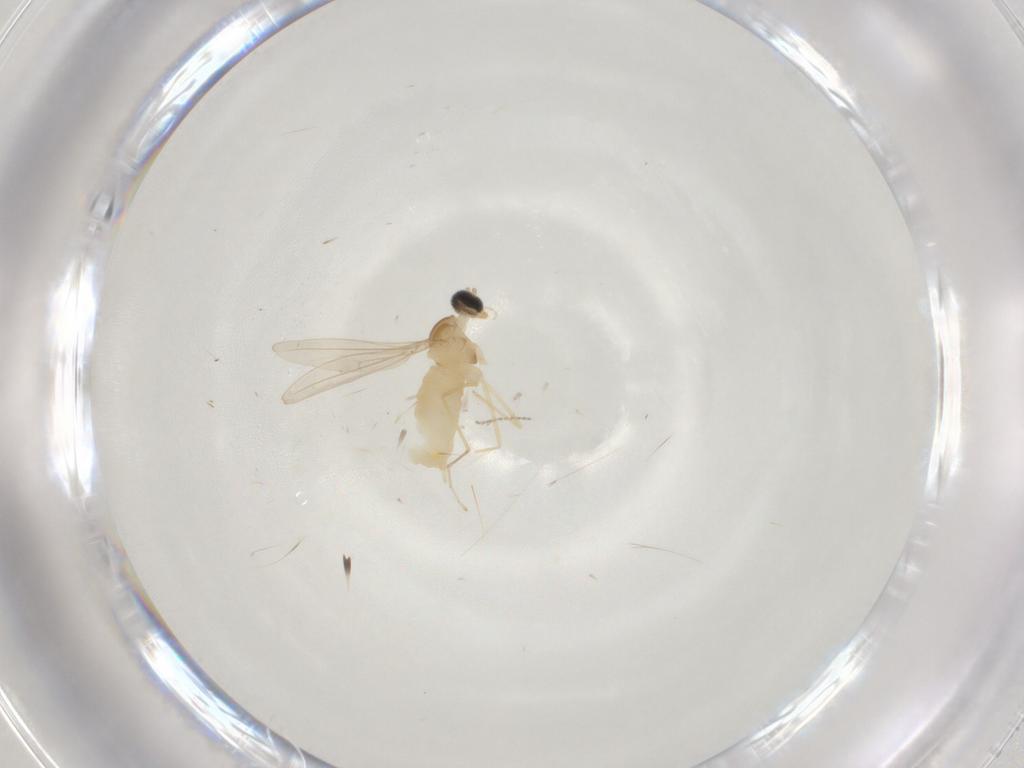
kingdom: Animalia
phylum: Arthropoda
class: Insecta
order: Diptera
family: Cecidomyiidae
